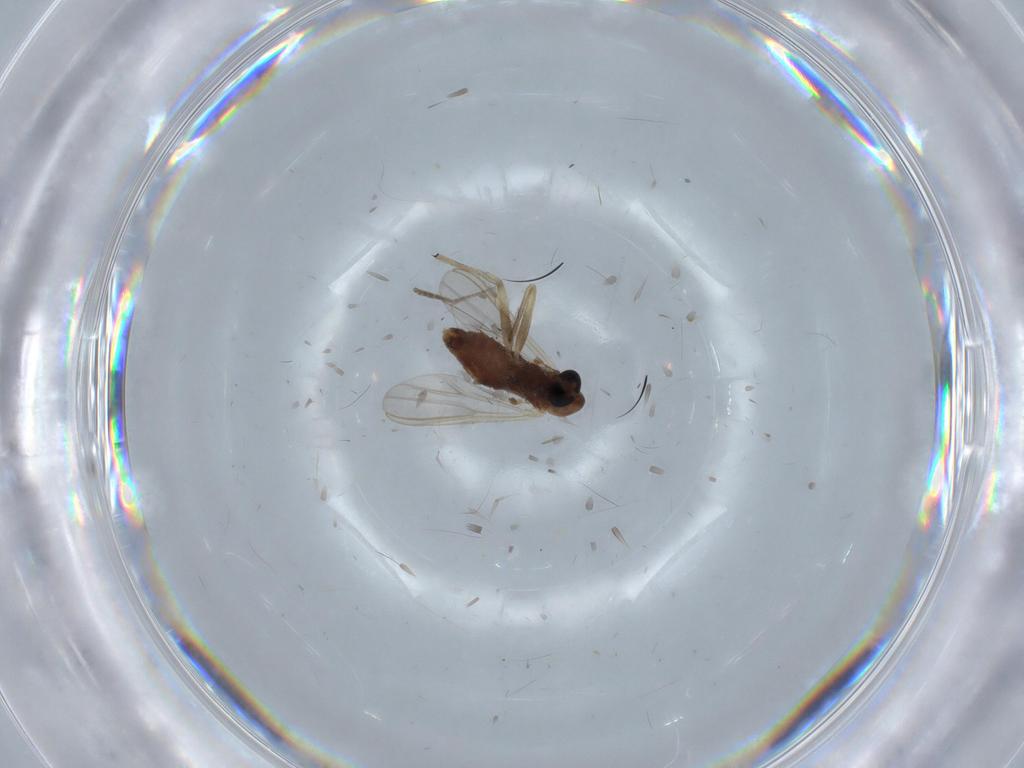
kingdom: Animalia
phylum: Arthropoda
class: Insecta
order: Diptera
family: Chironomidae
